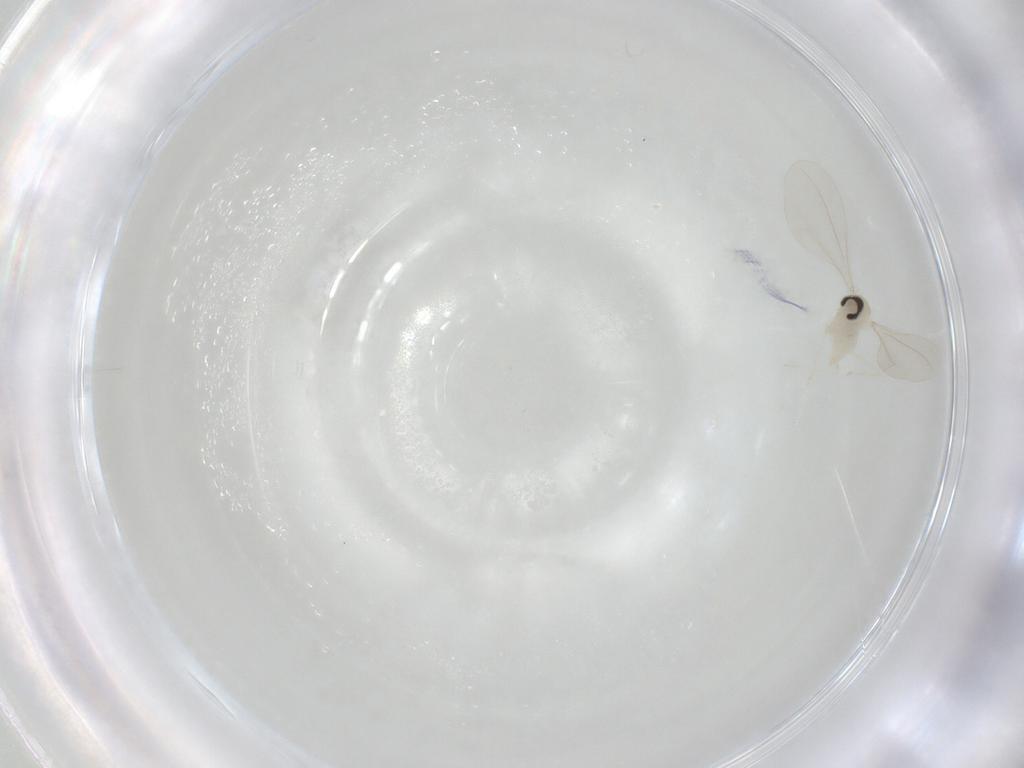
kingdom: Animalia
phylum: Arthropoda
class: Insecta
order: Diptera
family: Cecidomyiidae
